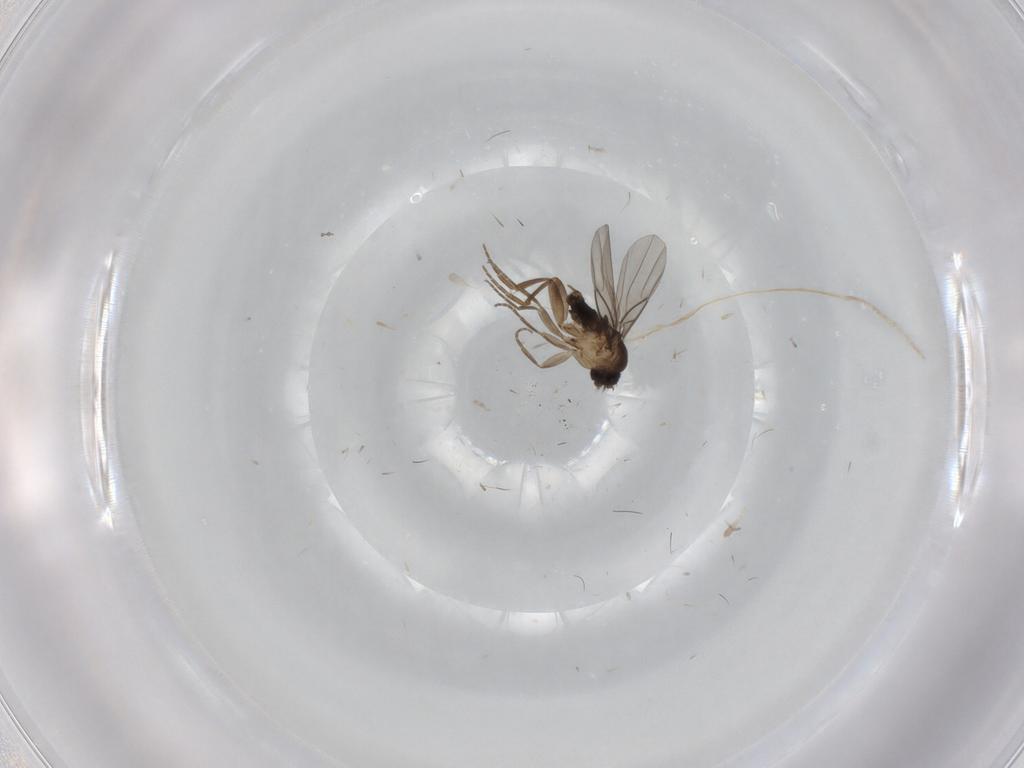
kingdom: Animalia
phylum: Arthropoda
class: Insecta
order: Diptera
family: Phoridae
